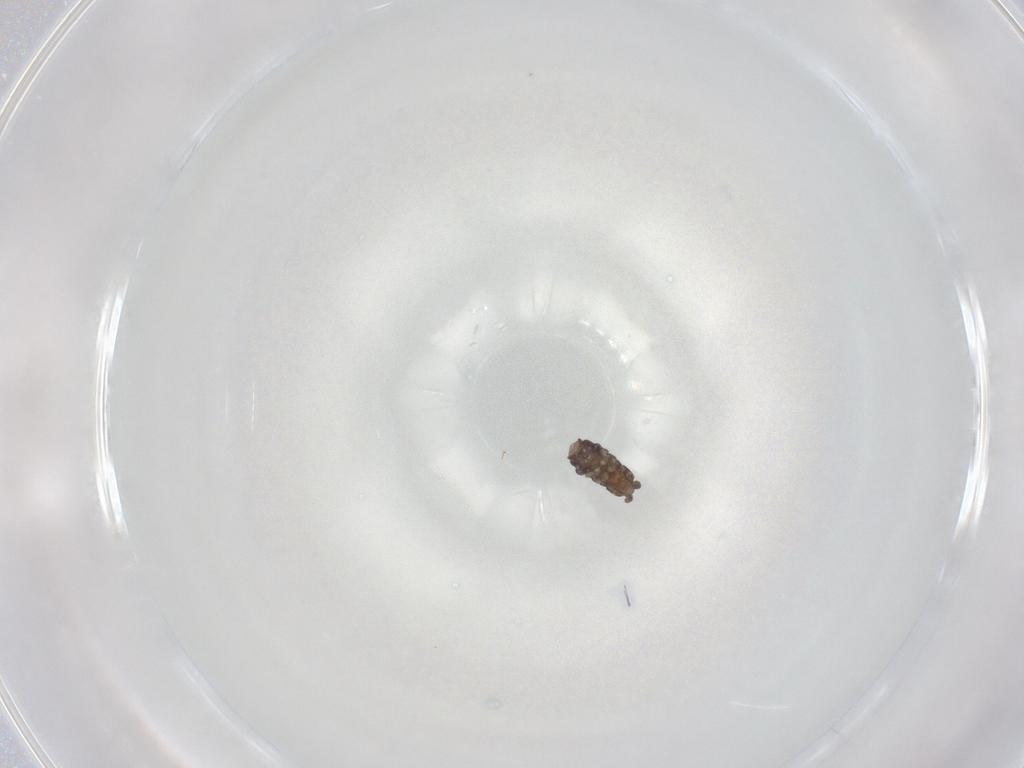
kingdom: Animalia
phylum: Arthropoda
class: Collembola
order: Poduromorpha
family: Hypogastruridae
